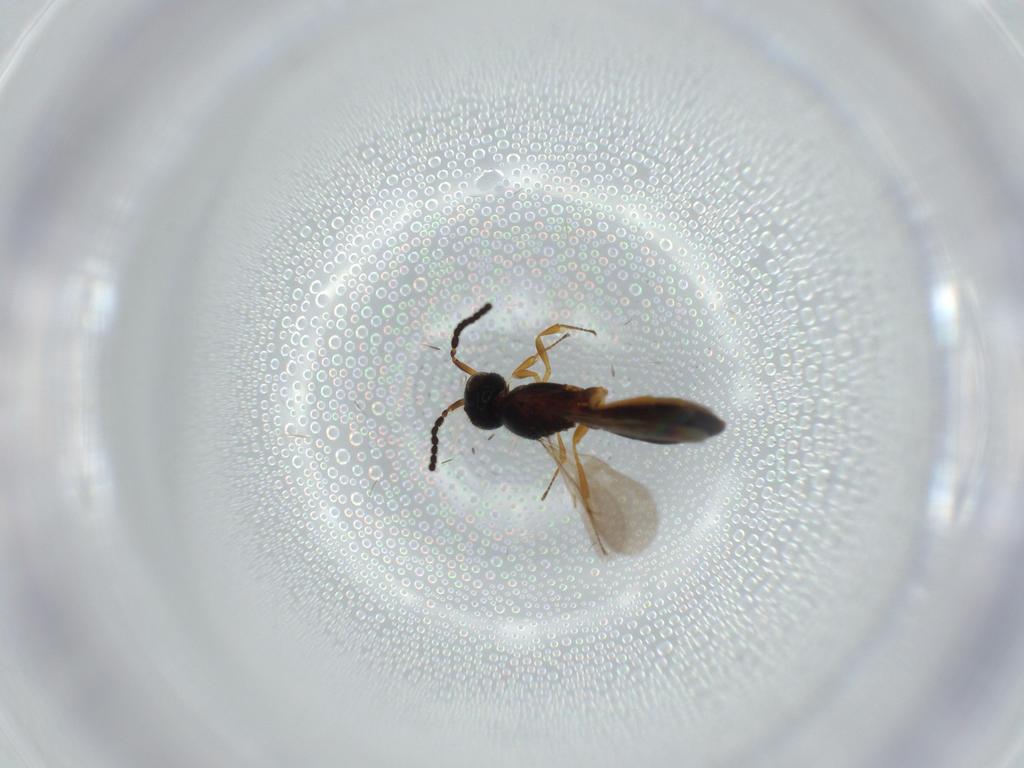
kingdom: Animalia
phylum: Arthropoda
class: Insecta
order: Hymenoptera
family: Scelionidae
